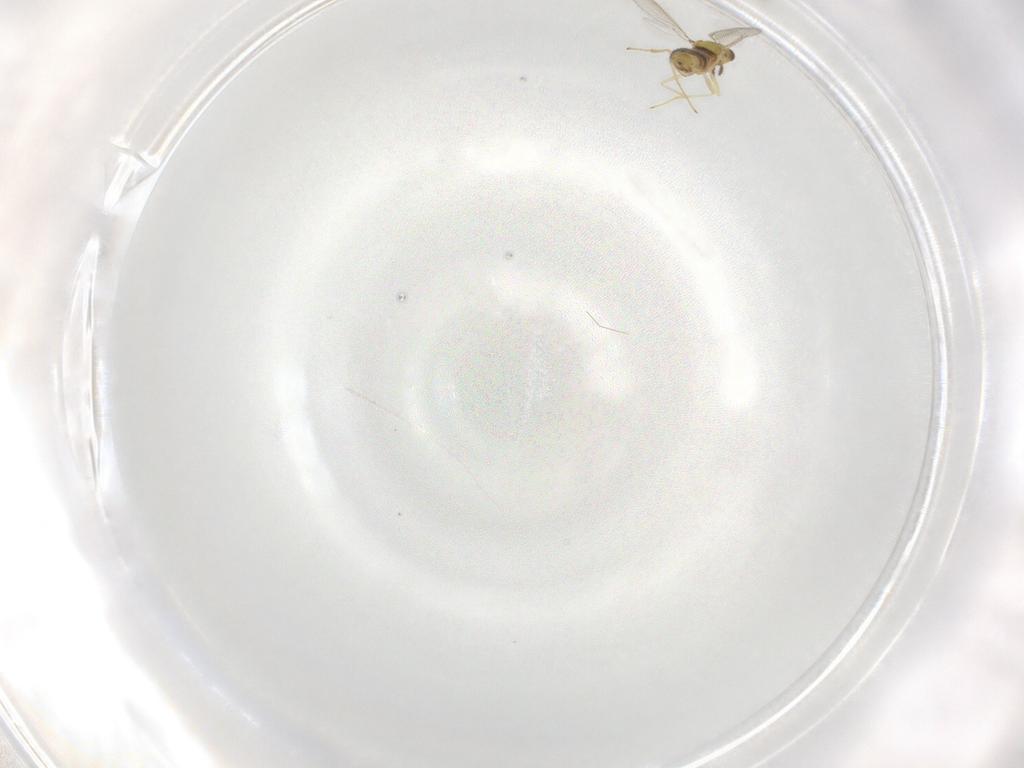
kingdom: Animalia
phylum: Arthropoda
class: Insecta
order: Hymenoptera
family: Eulophidae
